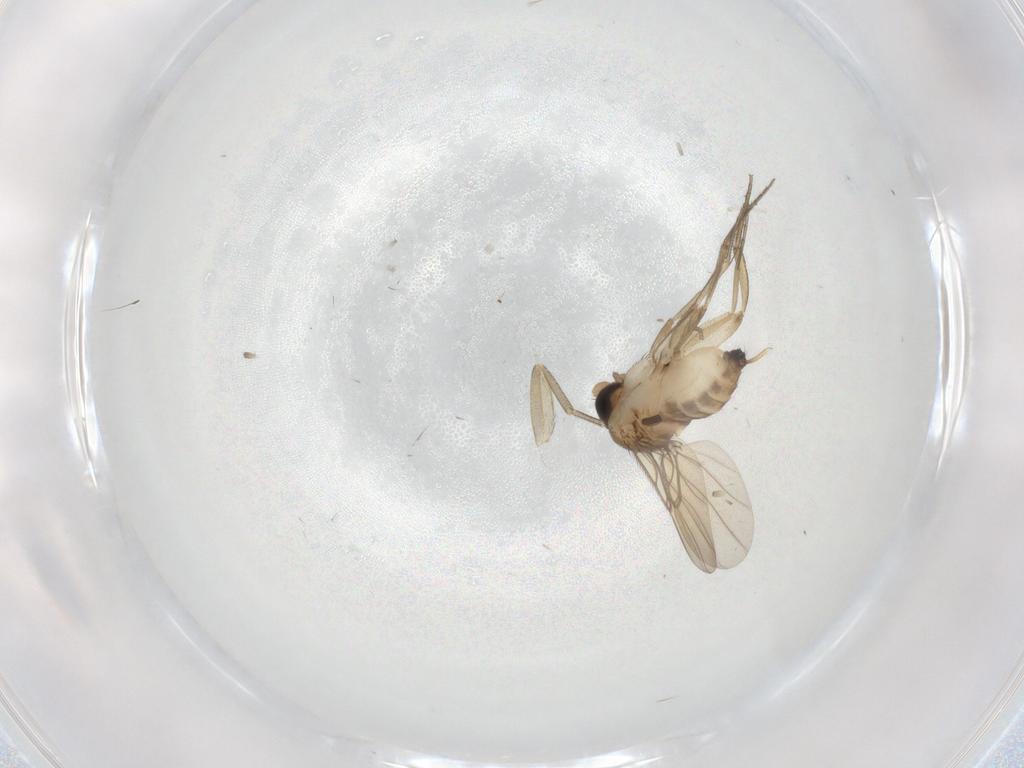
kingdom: Animalia
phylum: Arthropoda
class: Insecta
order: Diptera
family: Phoridae
